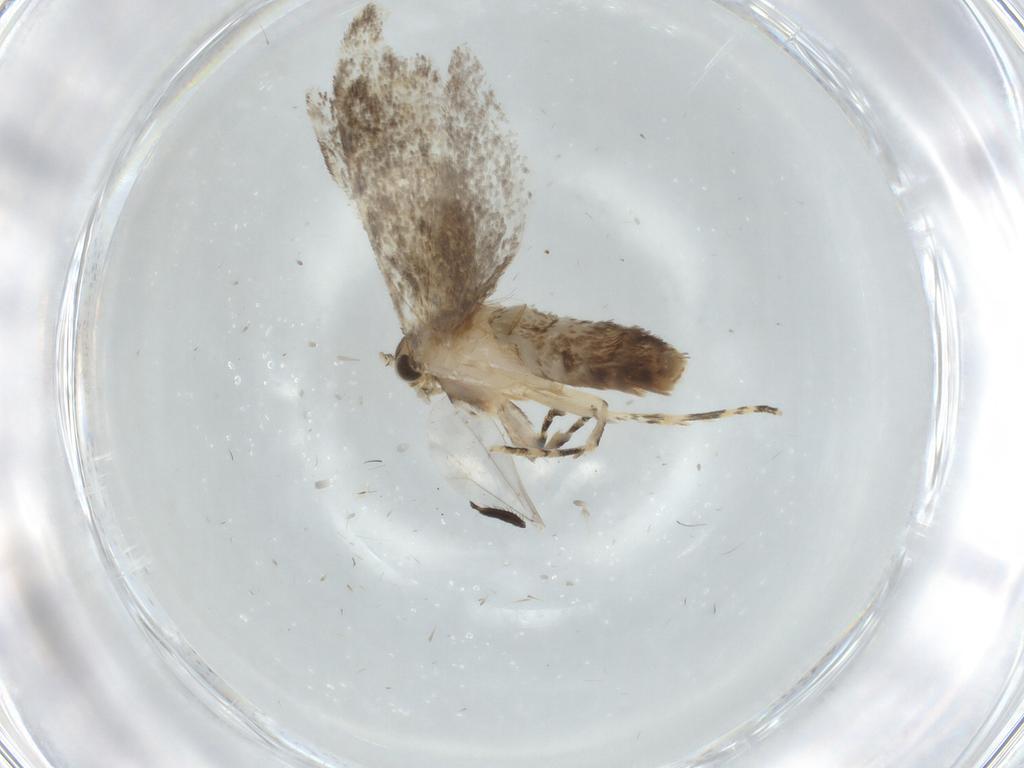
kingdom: Animalia
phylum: Arthropoda
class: Insecta
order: Lepidoptera
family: Tineidae
